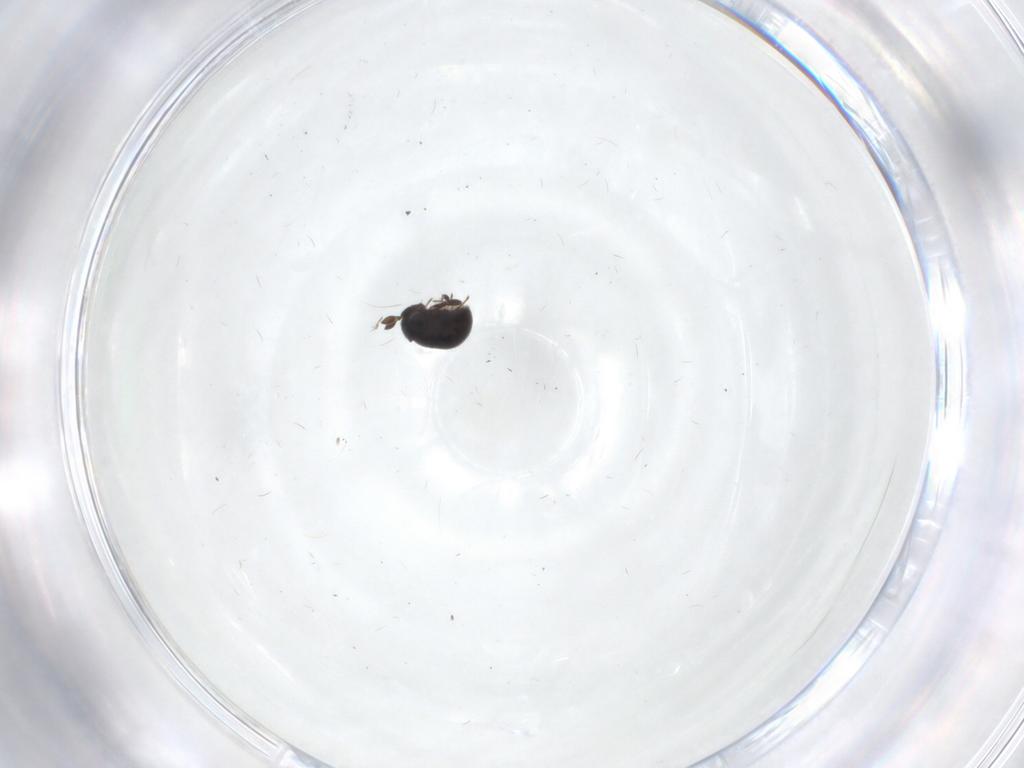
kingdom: Animalia
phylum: Arthropoda
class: Insecta
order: Hymenoptera
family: Scelionidae
